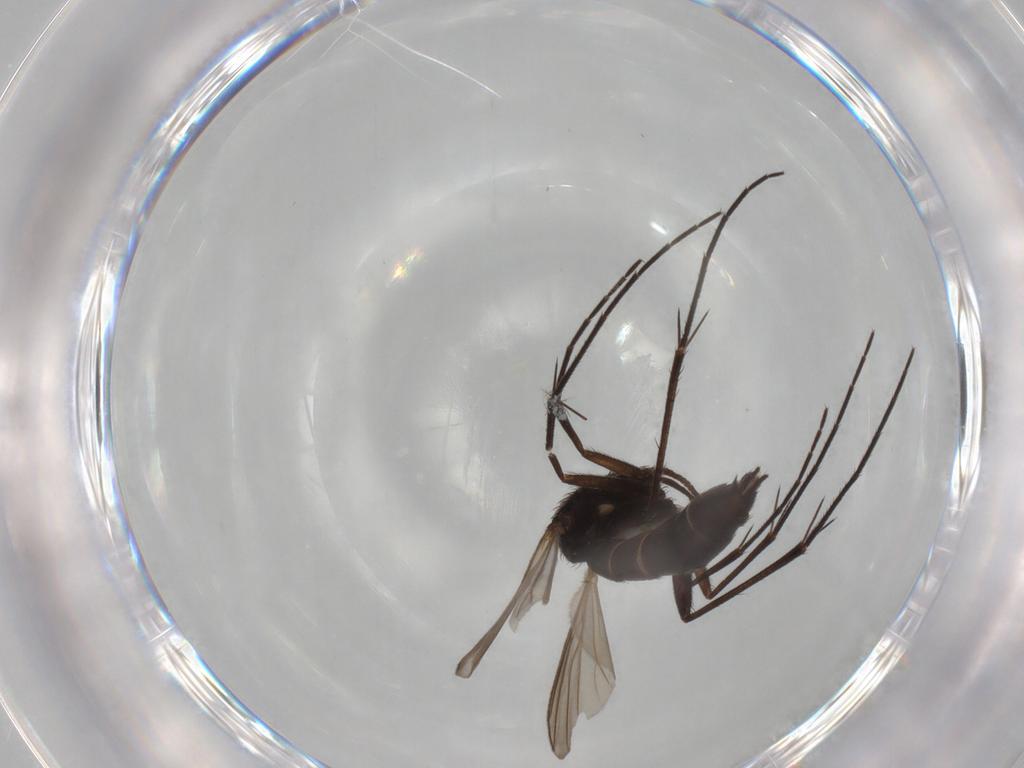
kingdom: Animalia
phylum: Arthropoda
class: Insecta
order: Diptera
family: Mycetophilidae
